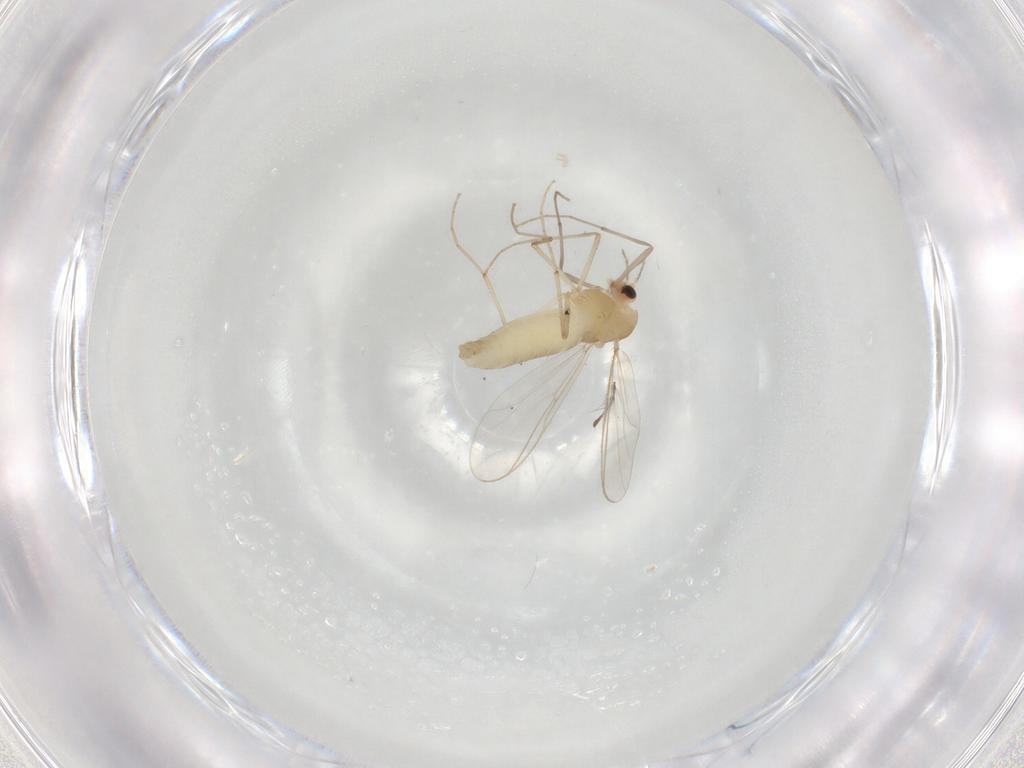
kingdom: Animalia
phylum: Arthropoda
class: Insecta
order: Diptera
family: Chironomidae
